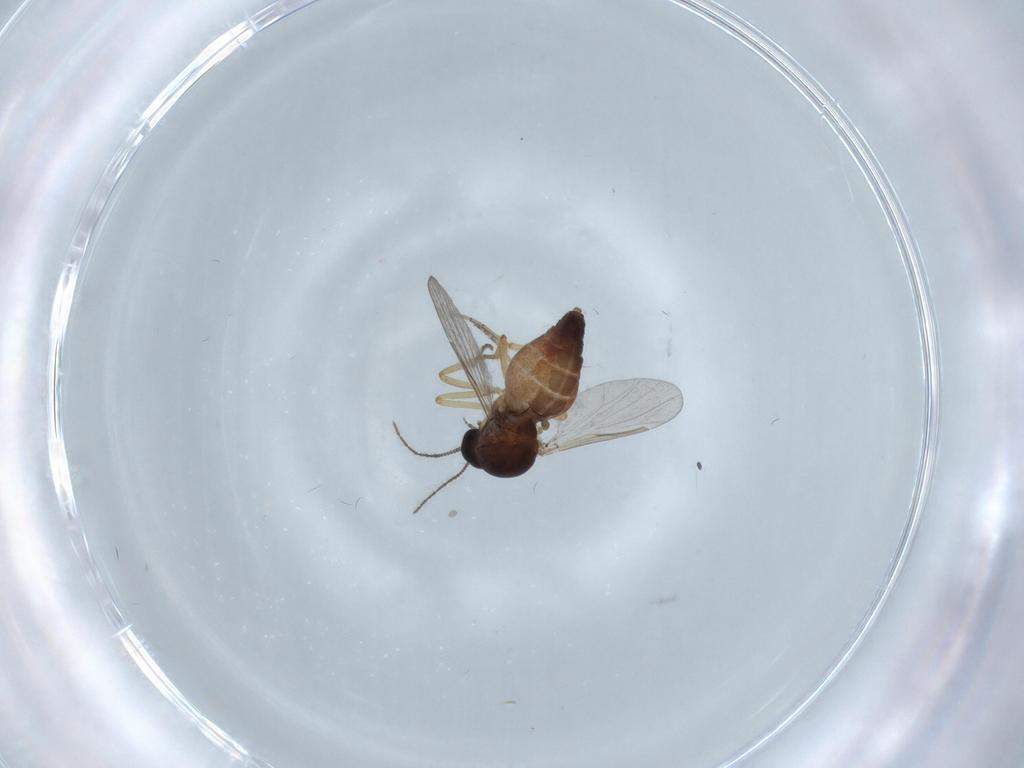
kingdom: Animalia
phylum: Arthropoda
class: Insecta
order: Diptera
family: Ceratopogonidae
